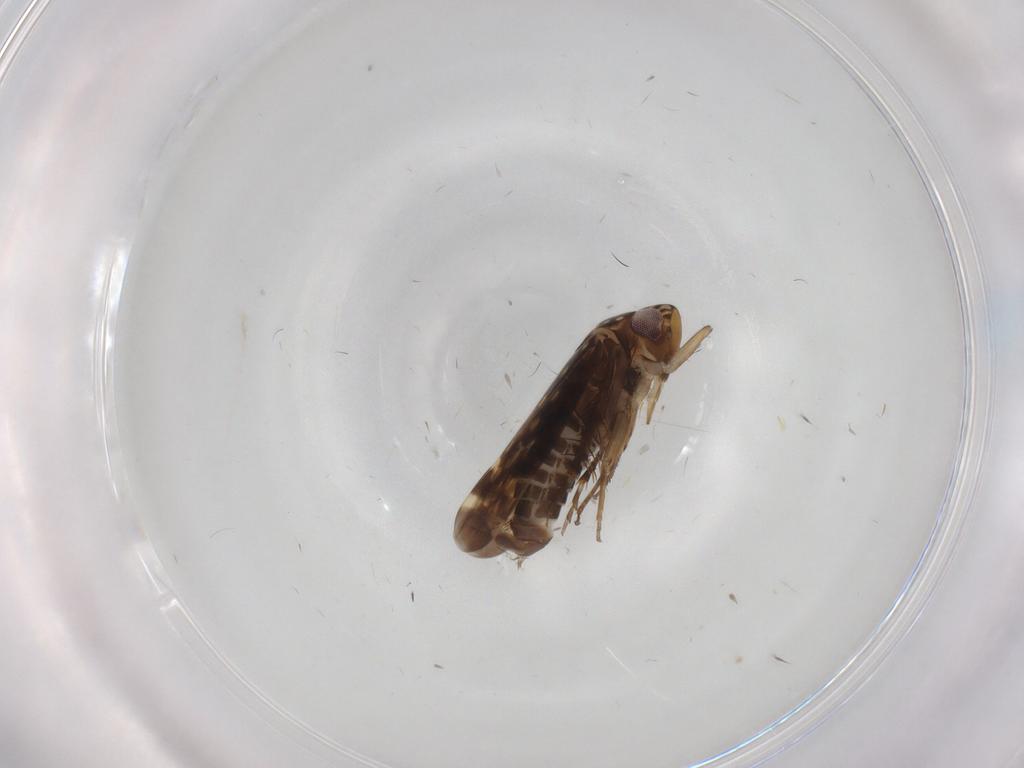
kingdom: Animalia
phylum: Arthropoda
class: Insecta
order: Hemiptera
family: Cicadellidae
